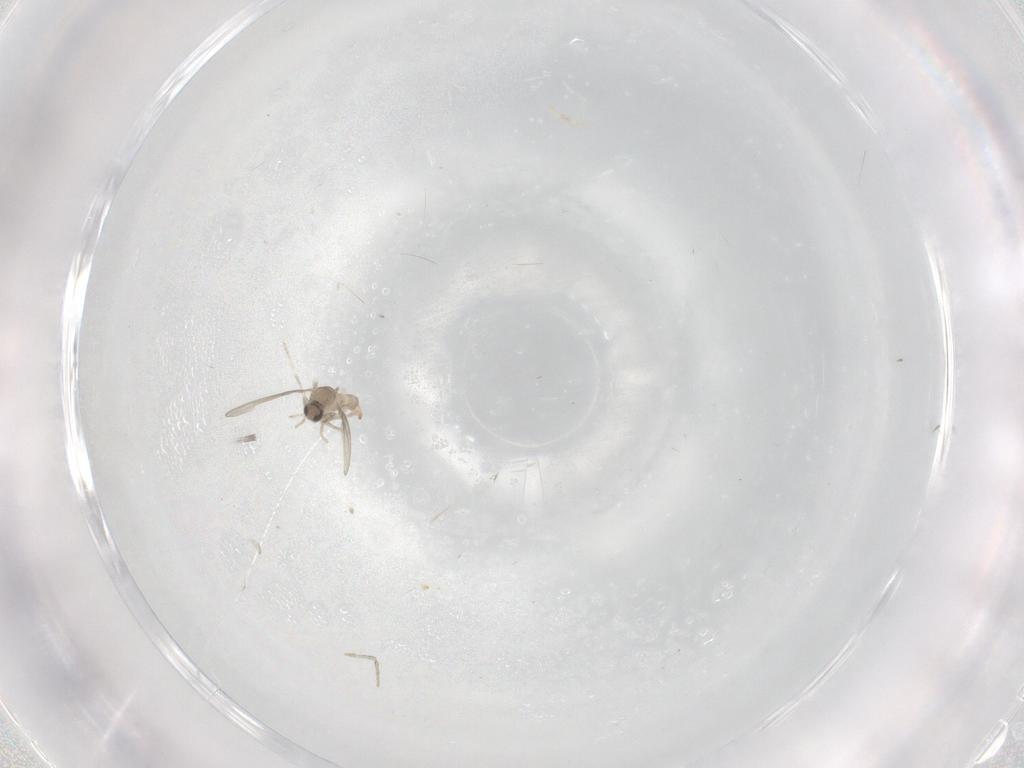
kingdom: Animalia
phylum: Arthropoda
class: Insecta
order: Diptera
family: Cecidomyiidae
